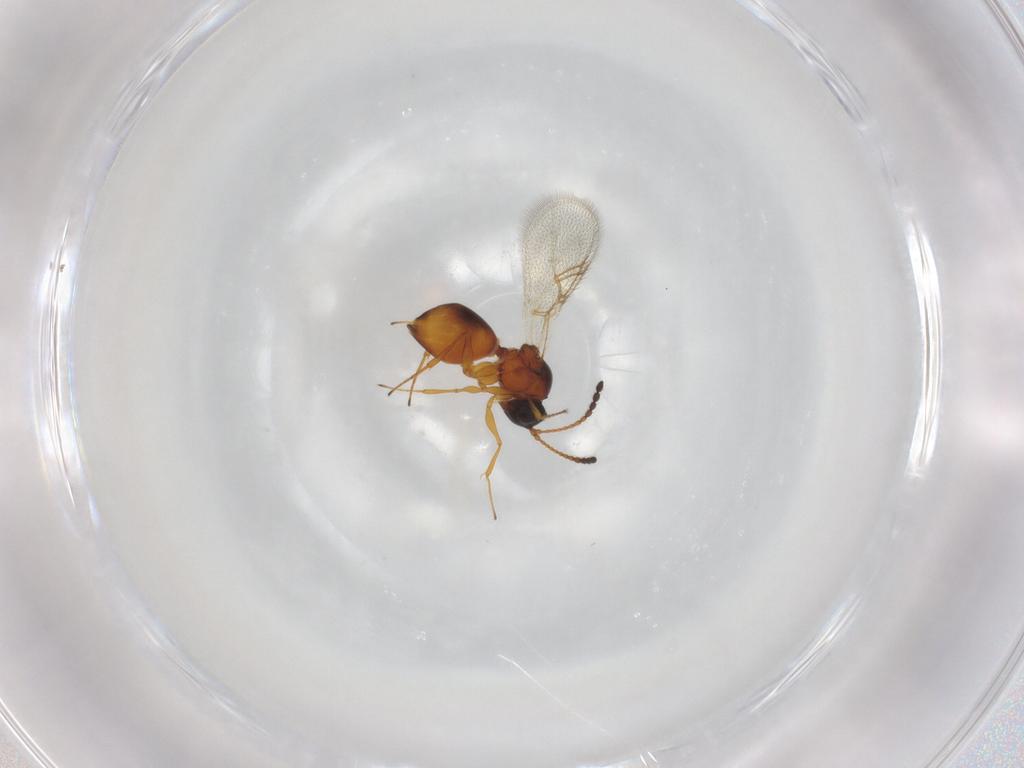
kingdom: Animalia
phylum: Arthropoda
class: Insecta
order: Hymenoptera
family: Figitidae
